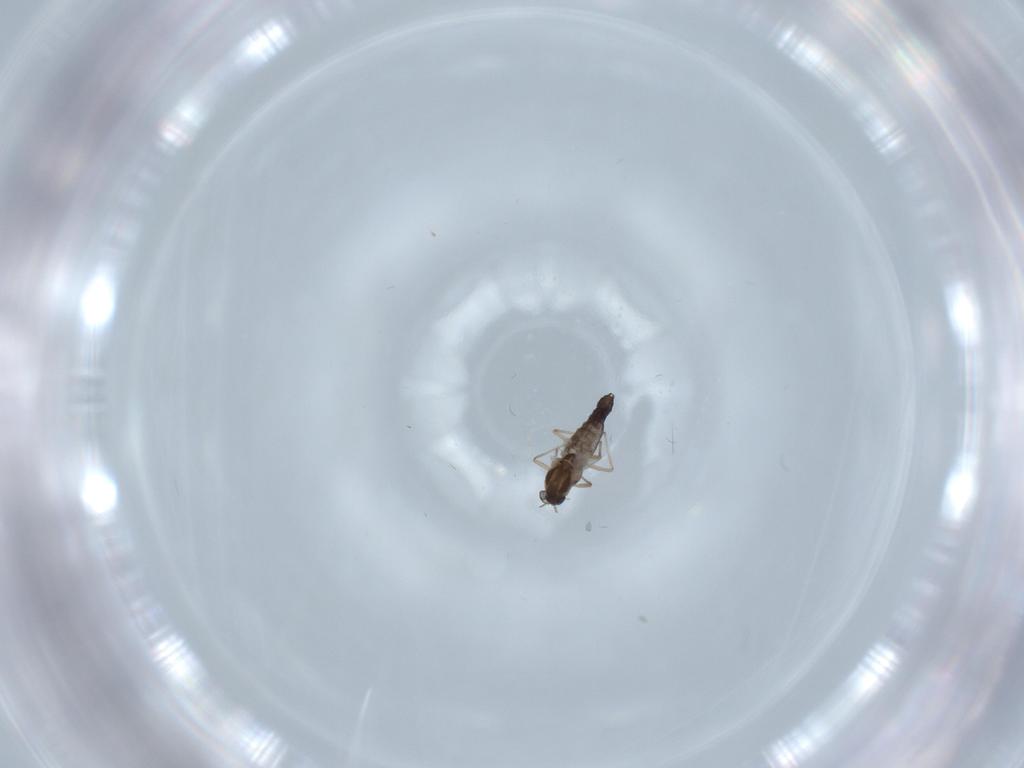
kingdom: Animalia
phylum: Arthropoda
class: Insecta
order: Diptera
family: Chironomidae
